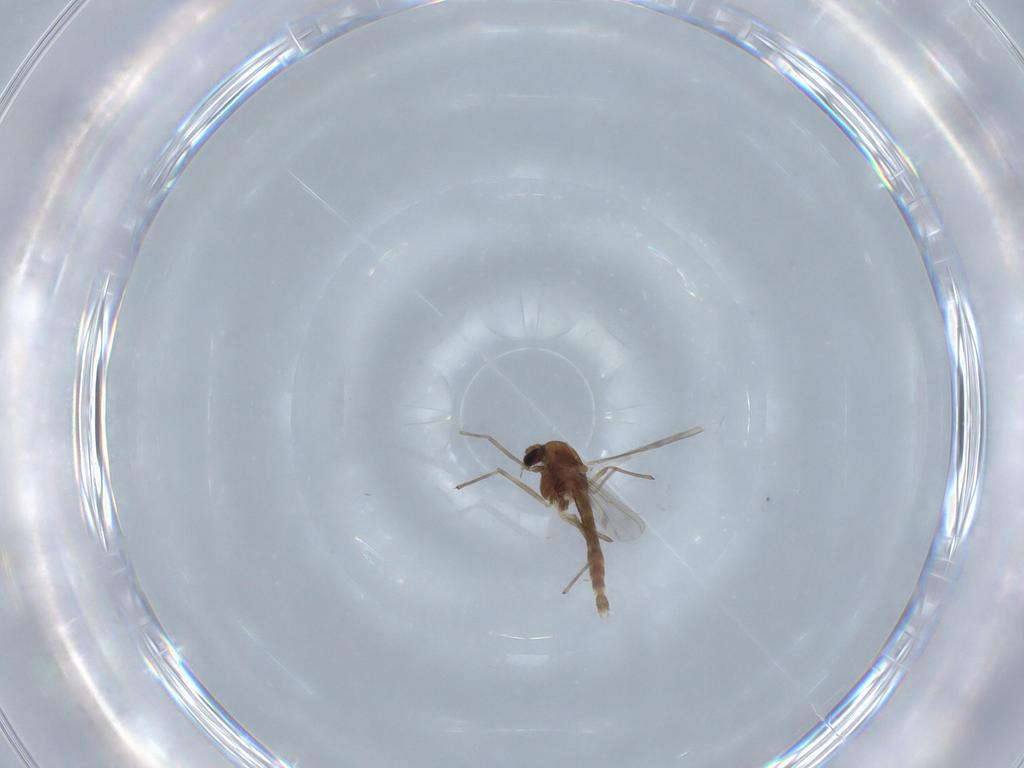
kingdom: Animalia
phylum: Arthropoda
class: Insecta
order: Diptera
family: Chironomidae
